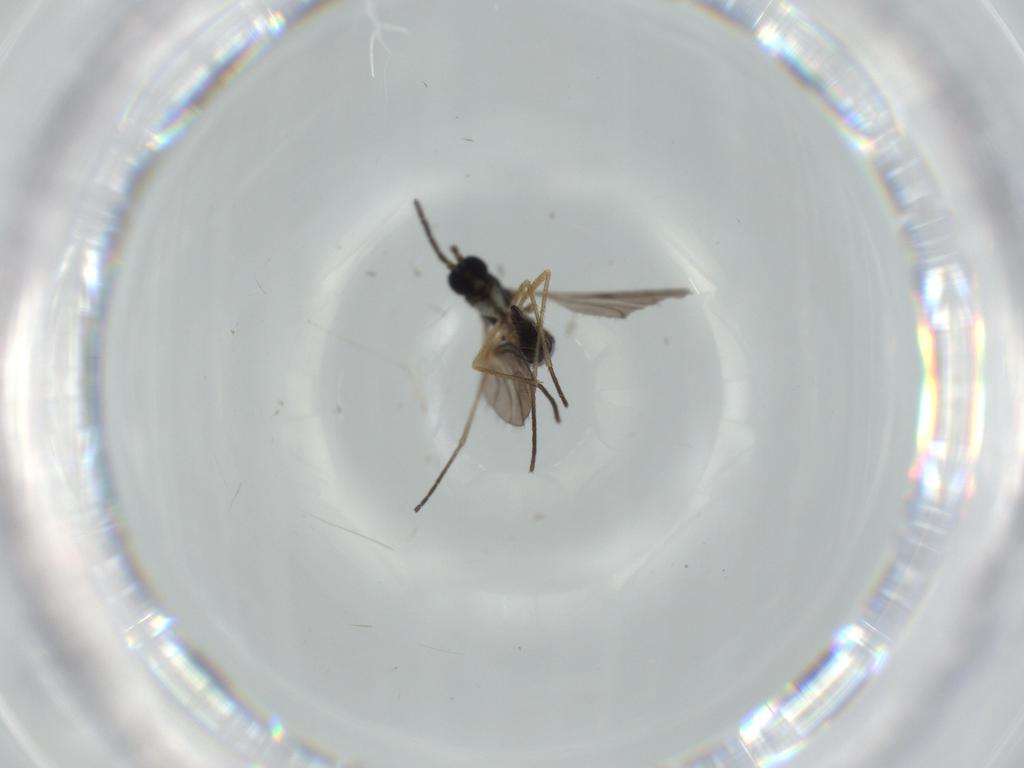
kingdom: Animalia
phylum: Arthropoda
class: Insecta
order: Diptera
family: Sciaridae
